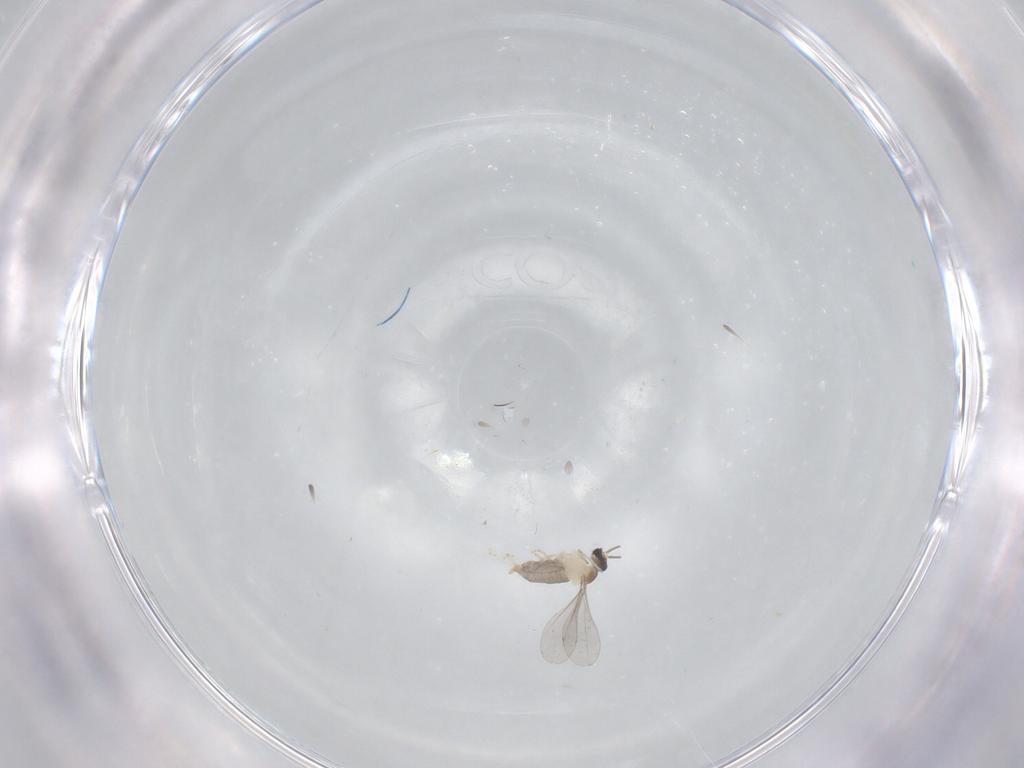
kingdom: Animalia
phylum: Arthropoda
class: Insecta
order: Diptera
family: Cecidomyiidae
